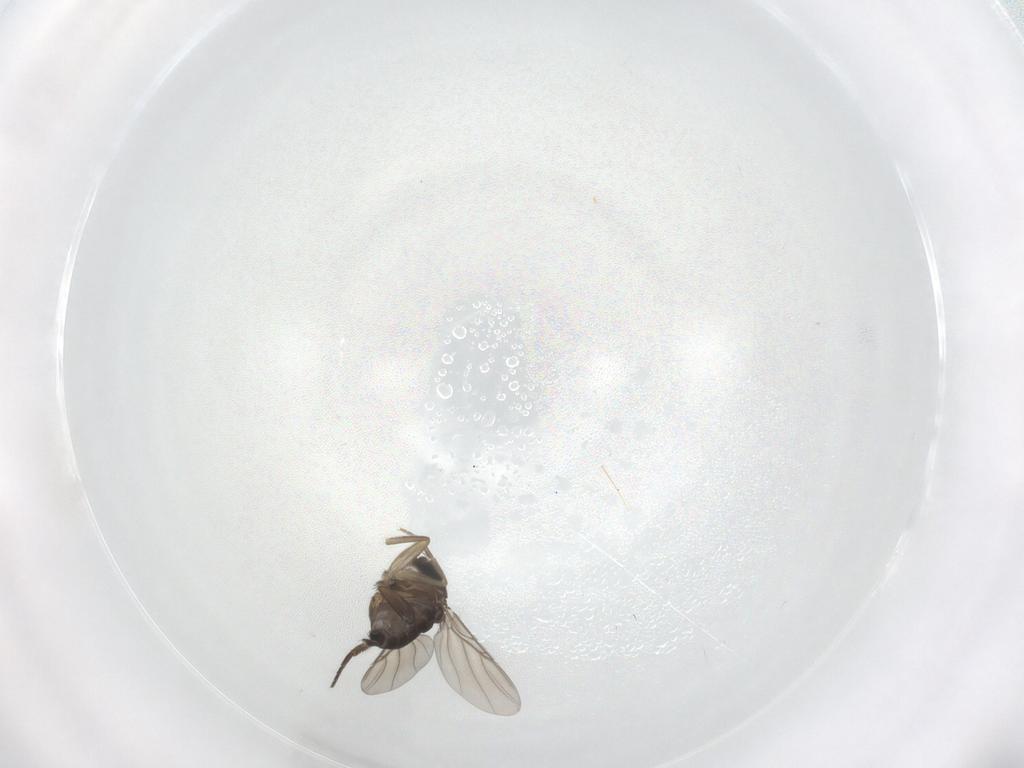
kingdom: Animalia
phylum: Arthropoda
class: Insecta
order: Diptera
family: Phoridae
